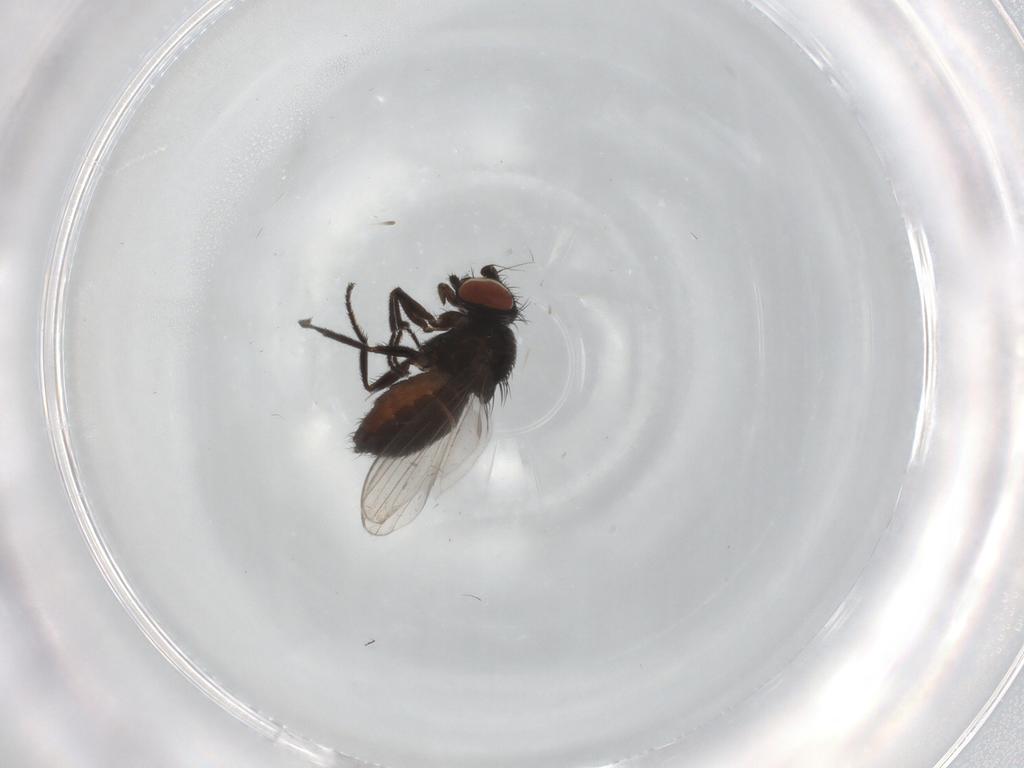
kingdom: Animalia
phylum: Arthropoda
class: Insecta
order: Diptera
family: Milichiidae
